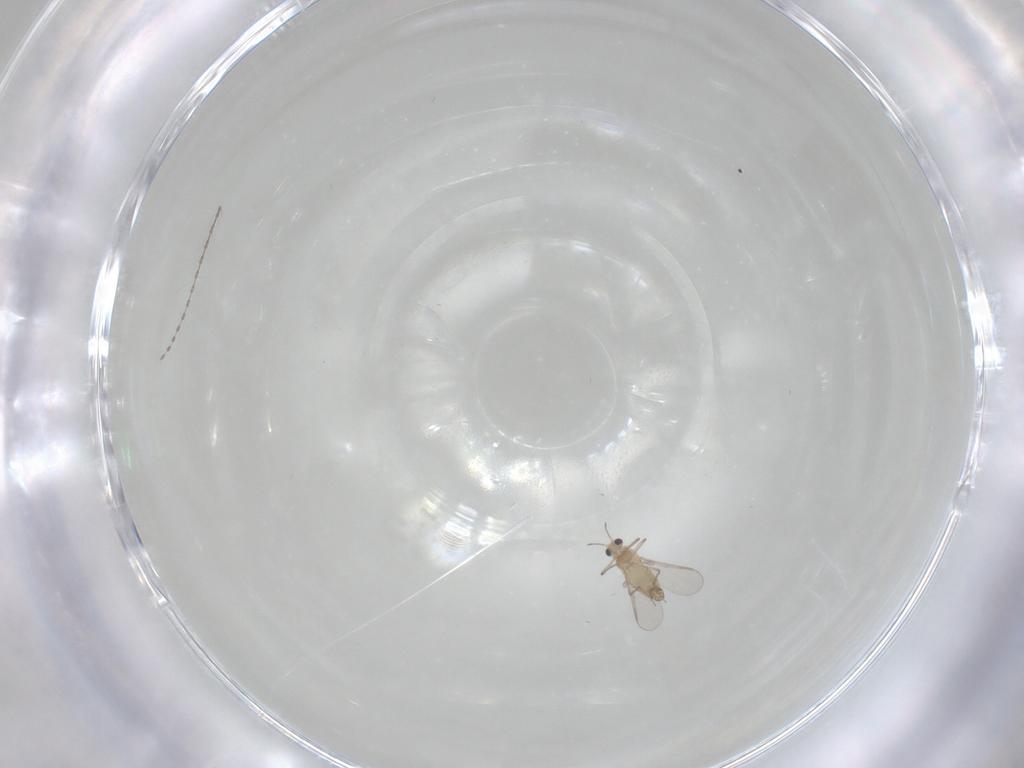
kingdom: Animalia
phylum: Arthropoda
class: Insecta
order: Diptera
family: Chironomidae
